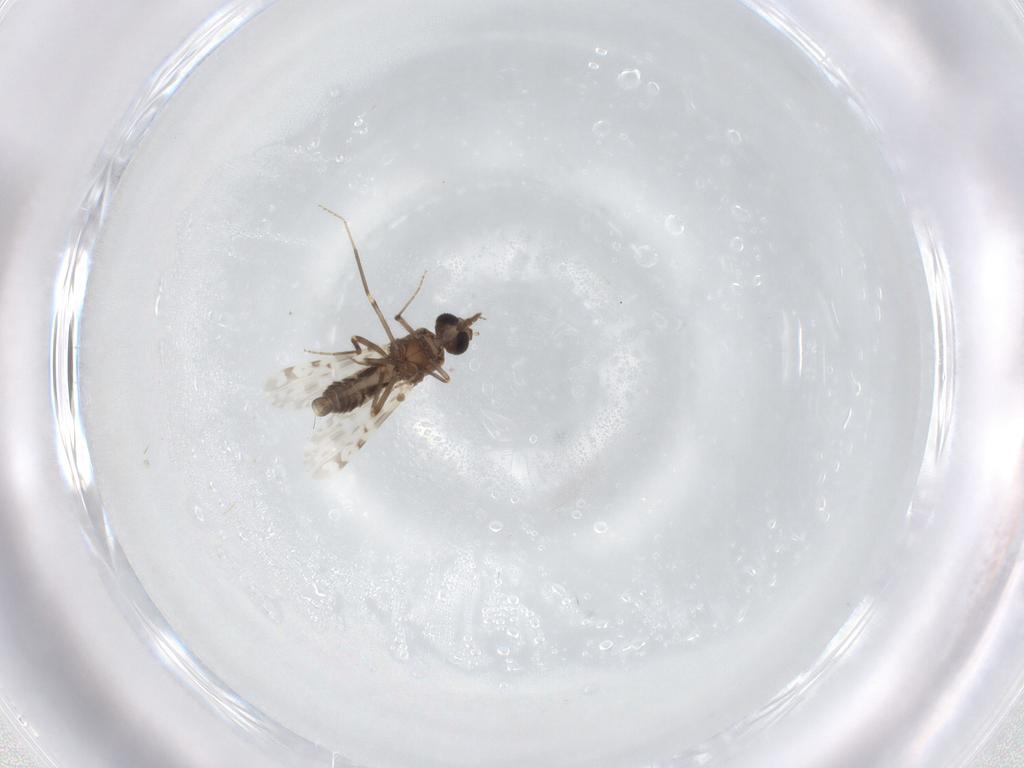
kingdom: Animalia
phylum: Arthropoda
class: Insecta
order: Diptera
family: Ceratopogonidae
